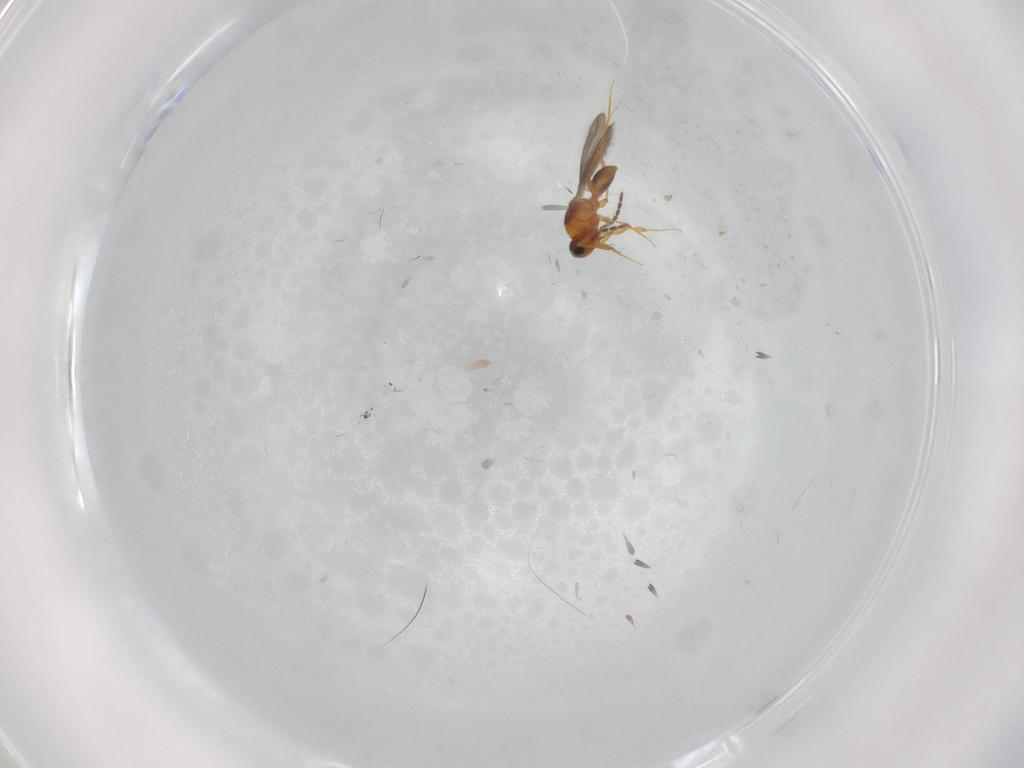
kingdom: Animalia
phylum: Arthropoda
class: Insecta
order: Hymenoptera
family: Platygastridae
